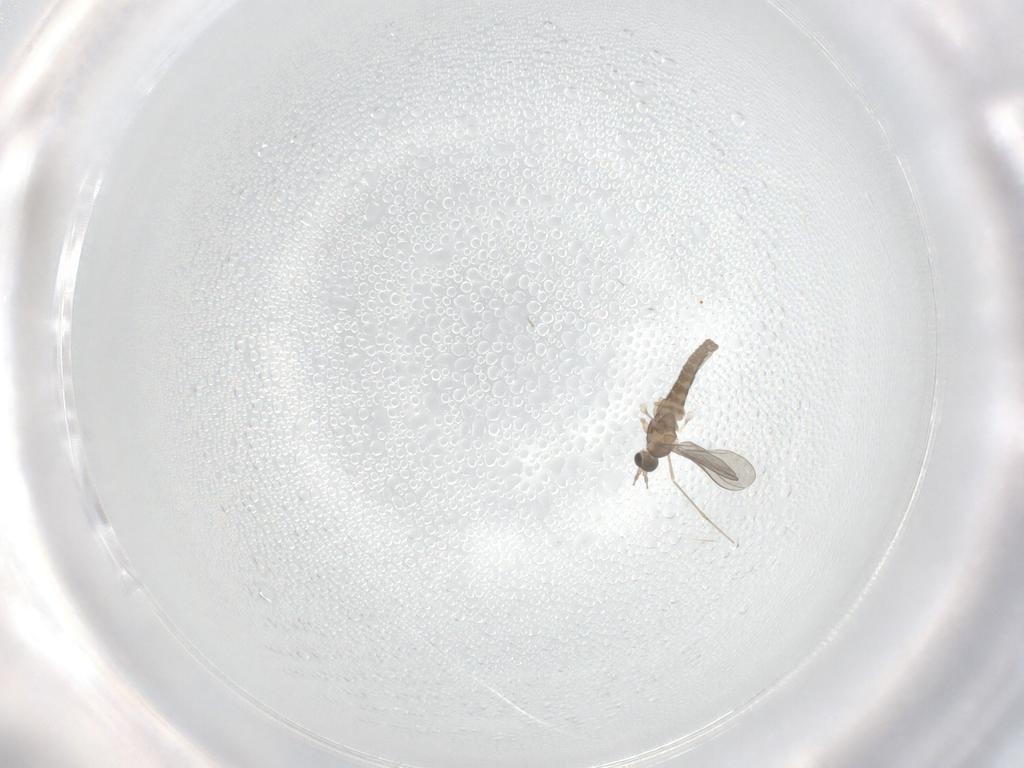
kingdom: Animalia
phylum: Arthropoda
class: Insecta
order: Diptera
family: Cecidomyiidae
